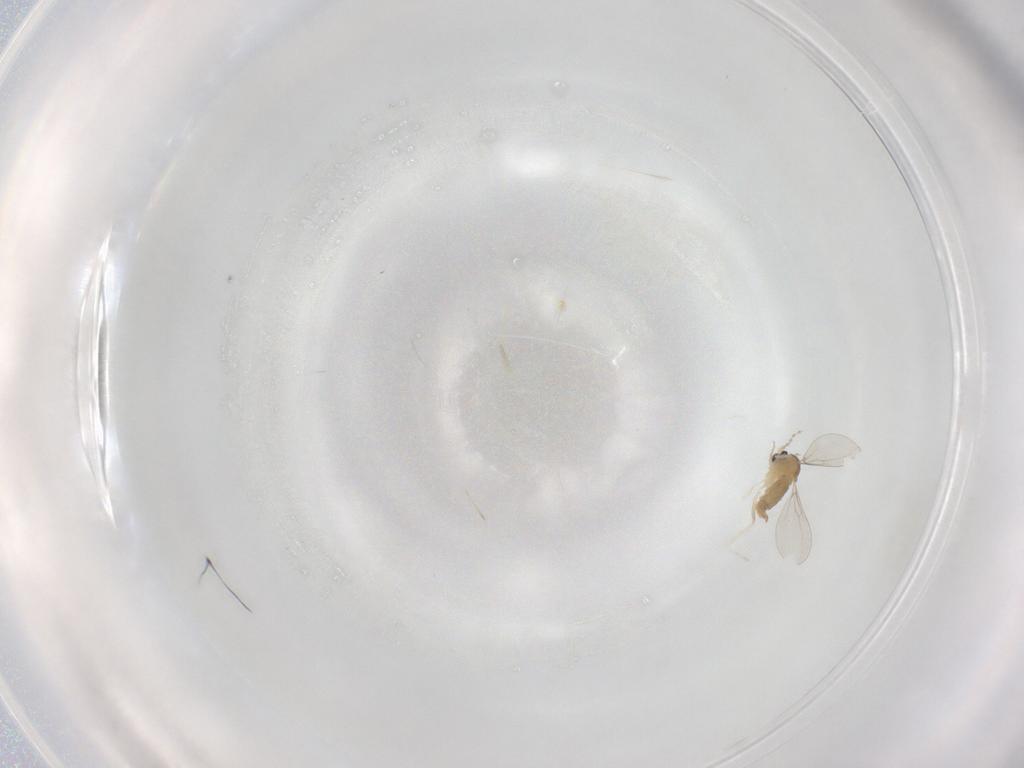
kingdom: Animalia
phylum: Arthropoda
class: Insecta
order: Diptera
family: Cecidomyiidae
